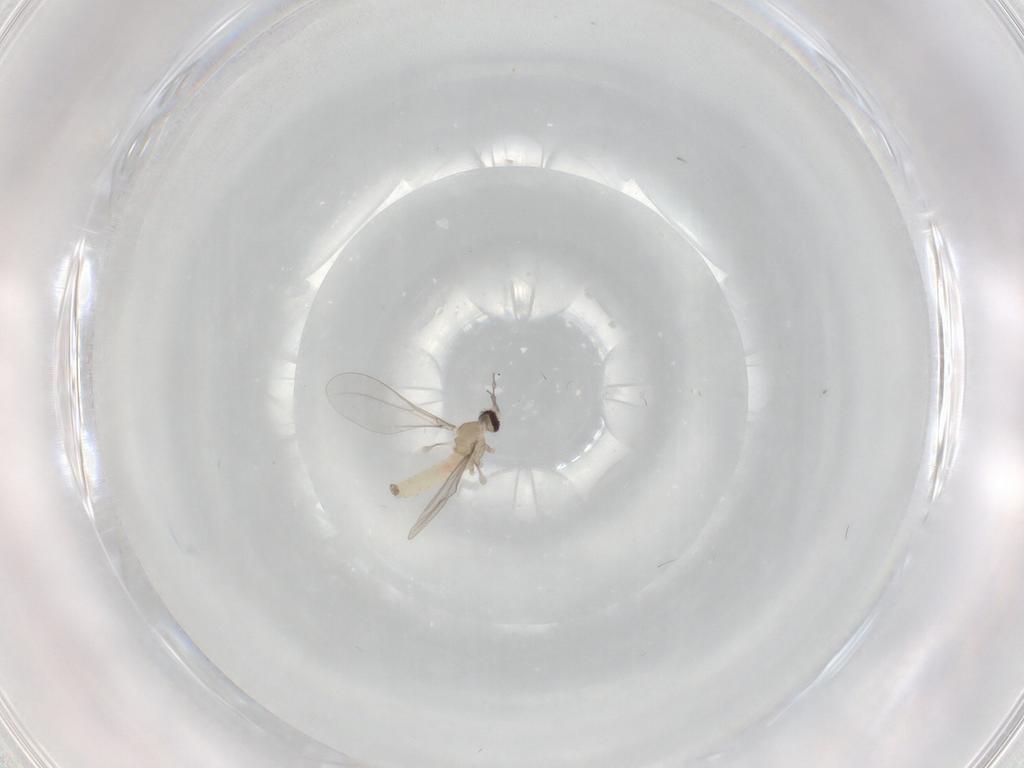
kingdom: Animalia
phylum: Arthropoda
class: Insecta
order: Diptera
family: Cecidomyiidae
